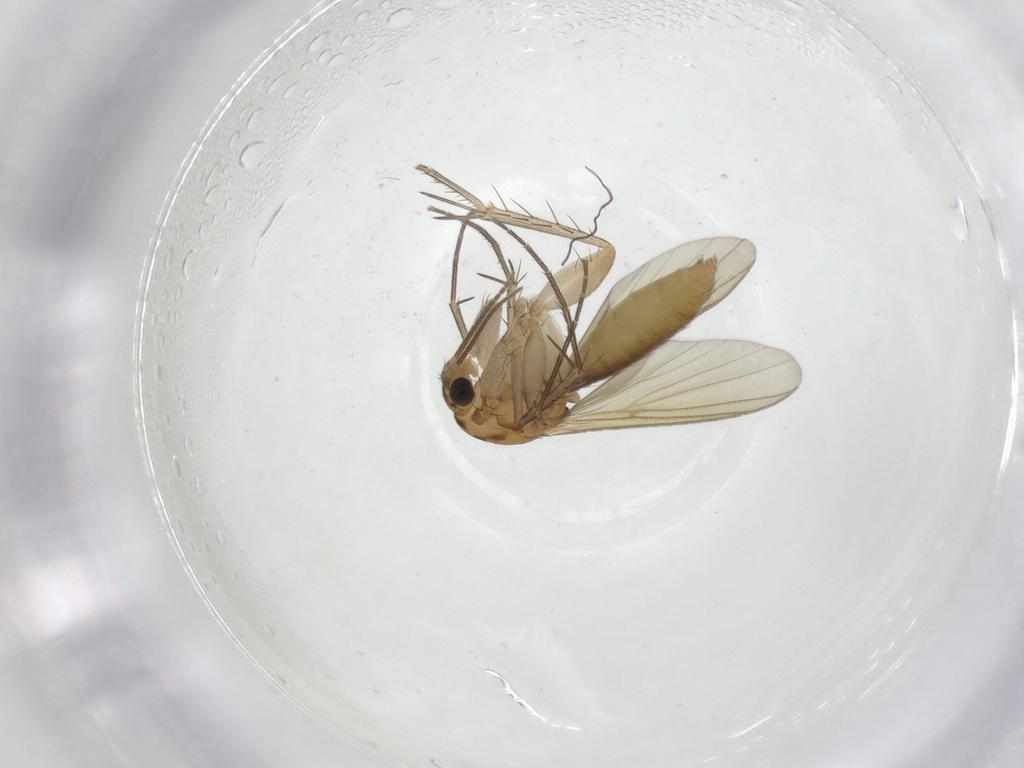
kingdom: Animalia
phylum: Arthropoda
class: Insecta
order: Diptera
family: Mycetophilidae
